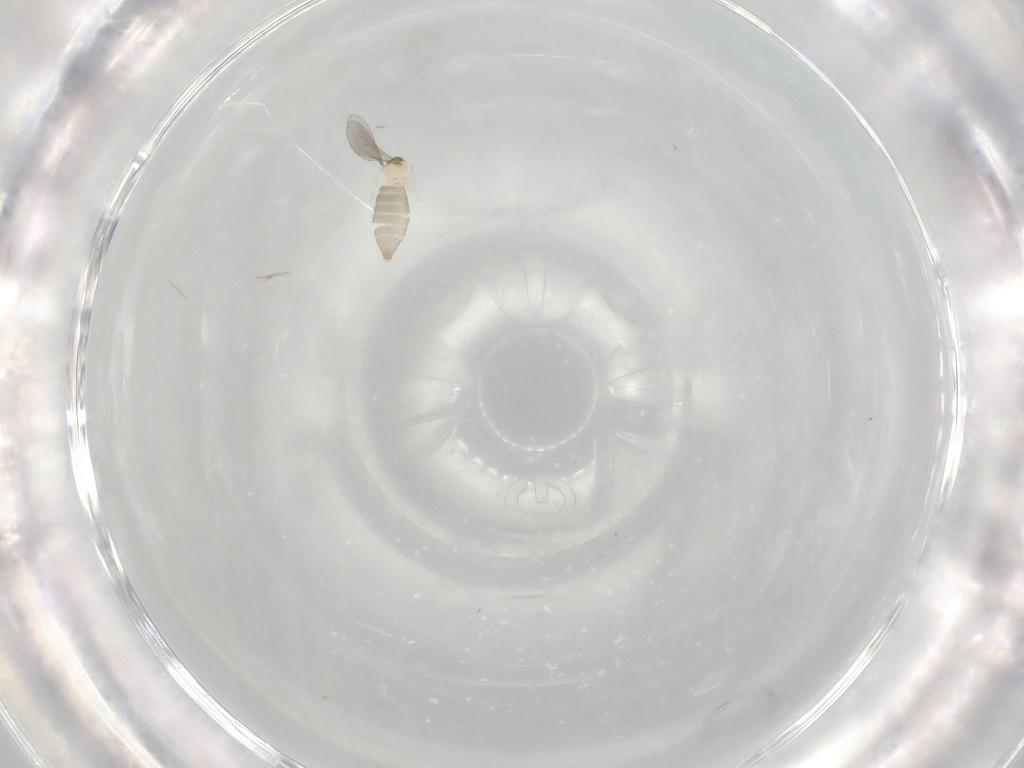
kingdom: Animalia
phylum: Arthropoda
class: Insecta
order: Diptera
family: Cecidomyiidae
